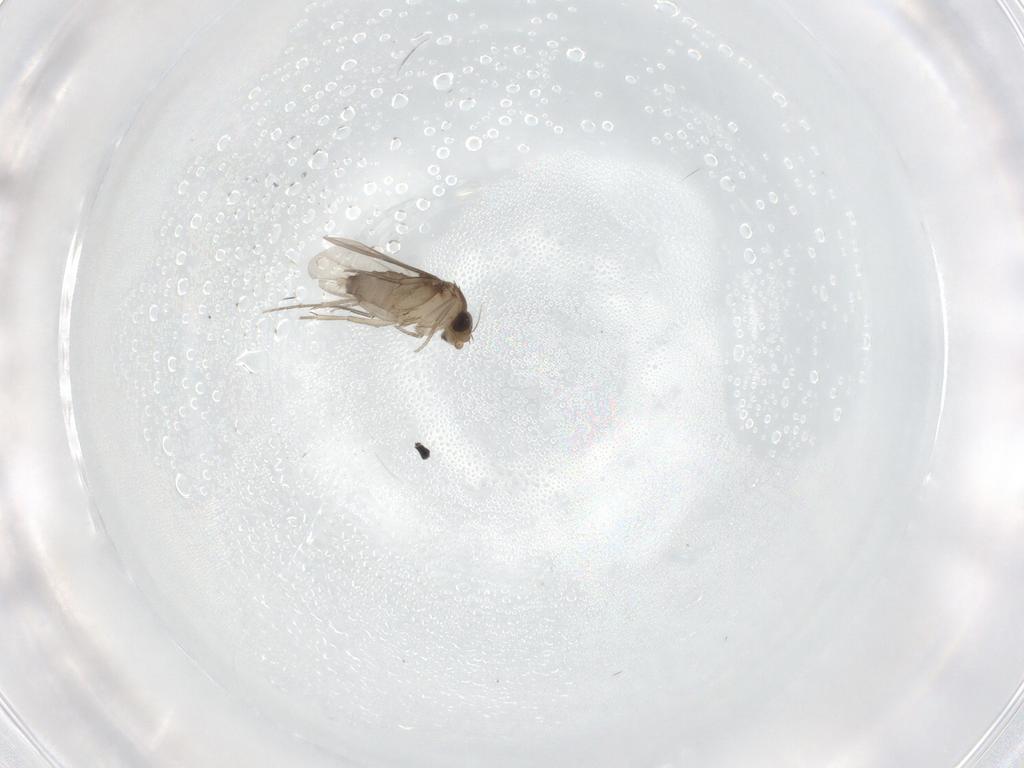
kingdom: Animalia
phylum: Arthropoda
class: Insecta
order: Diptera
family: Phoridae
